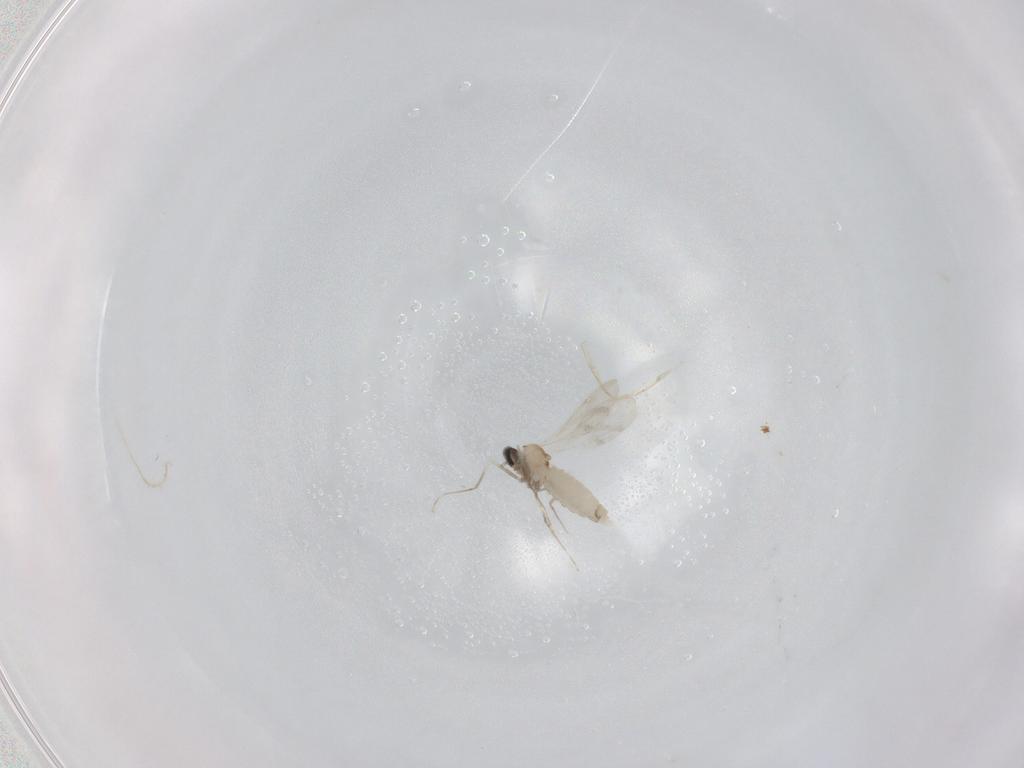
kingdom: Animalia
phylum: Arthropoda
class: Insecta
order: Diptera
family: Cecidomyiidae
